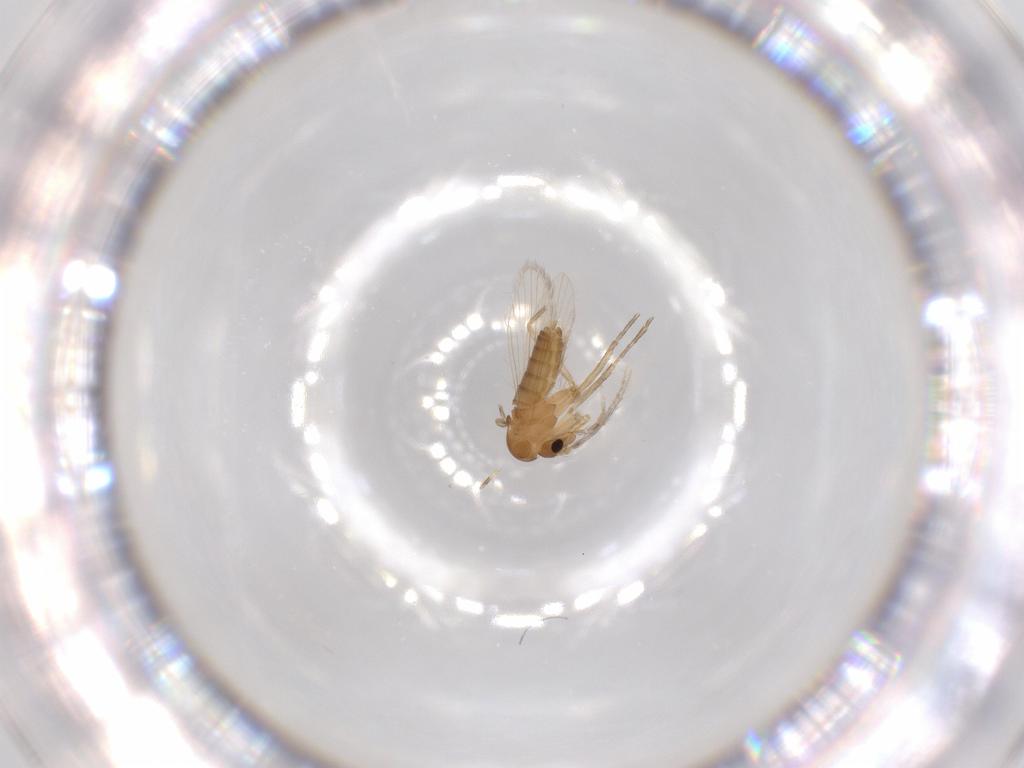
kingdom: Animalia
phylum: Arthropoda
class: Insecta
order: Diptera
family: Psychodidae
